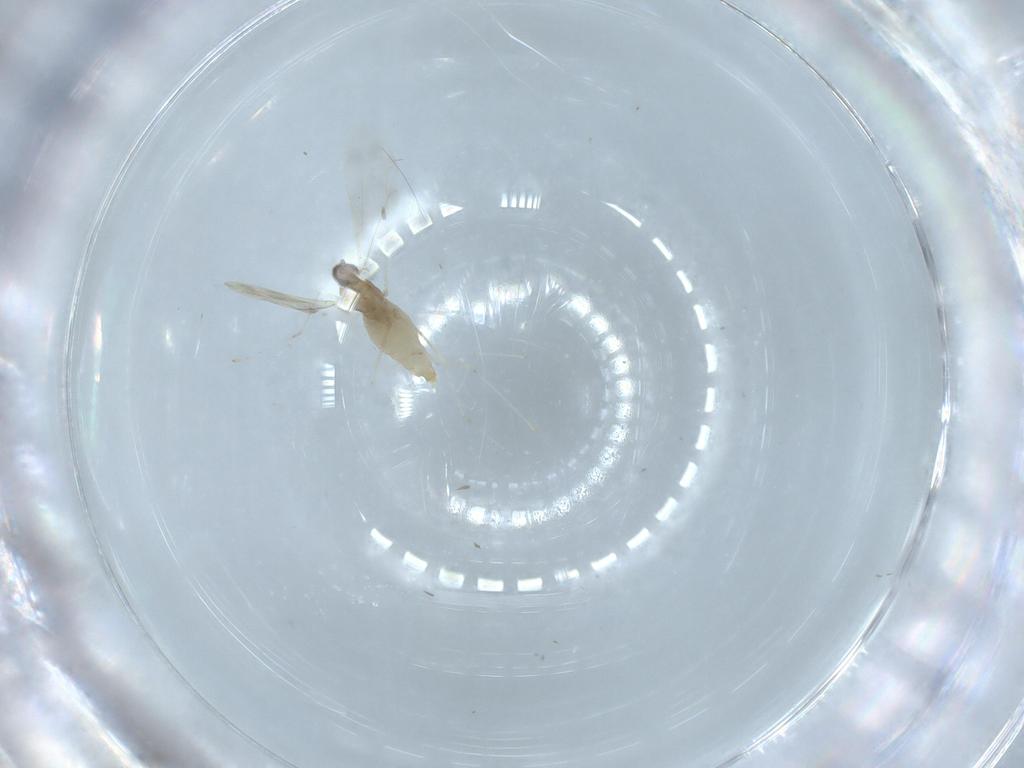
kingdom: Animalia
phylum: Arthropoda
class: Insecta
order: Diptera
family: Cecidomyiidae
